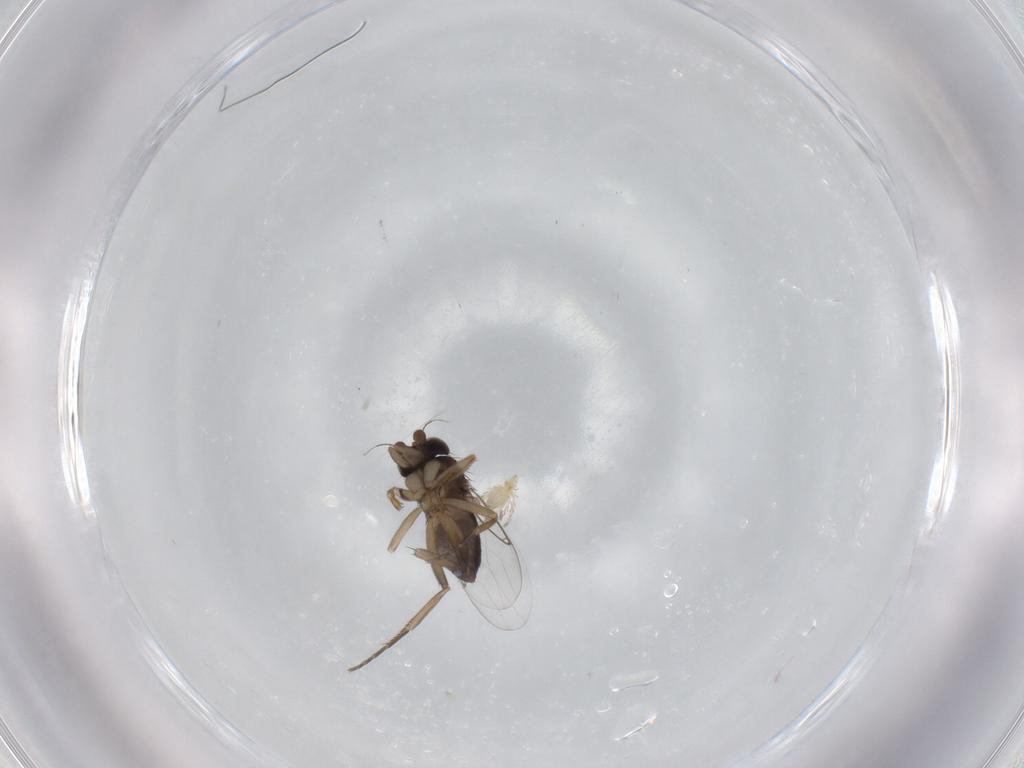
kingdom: Animalia
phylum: Arthropoda
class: Insecta
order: Diptera
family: Phoridae
